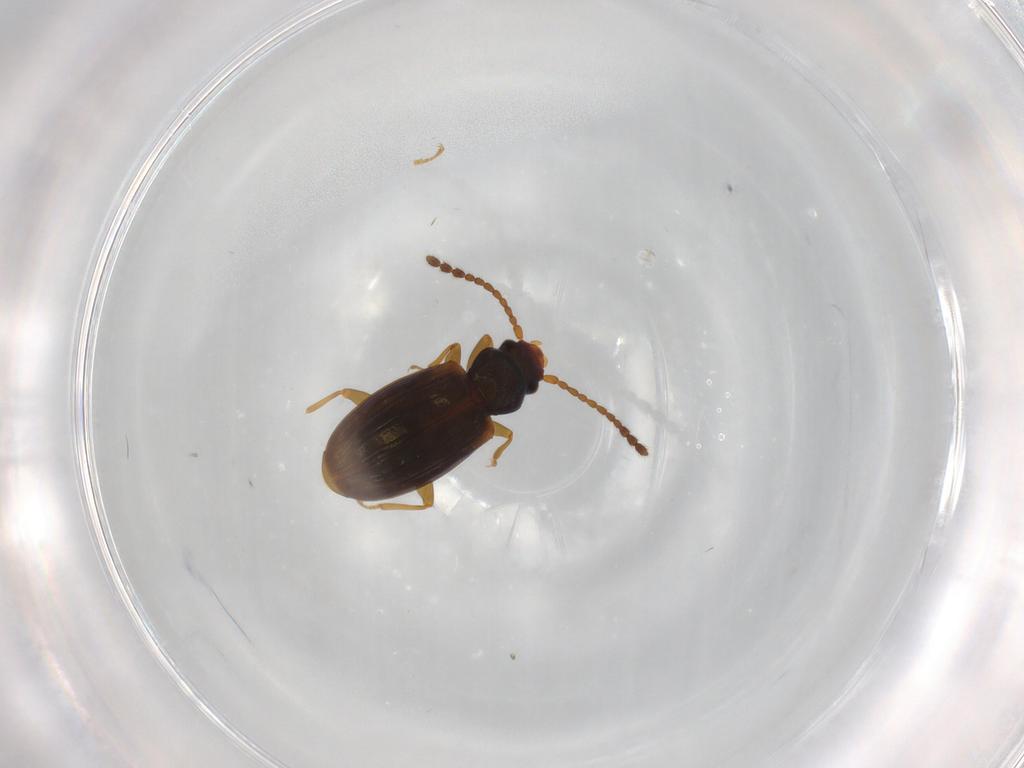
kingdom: Animalia
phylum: Arthropoda
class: Insecta
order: Coleoptera
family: Laemophloeidae
